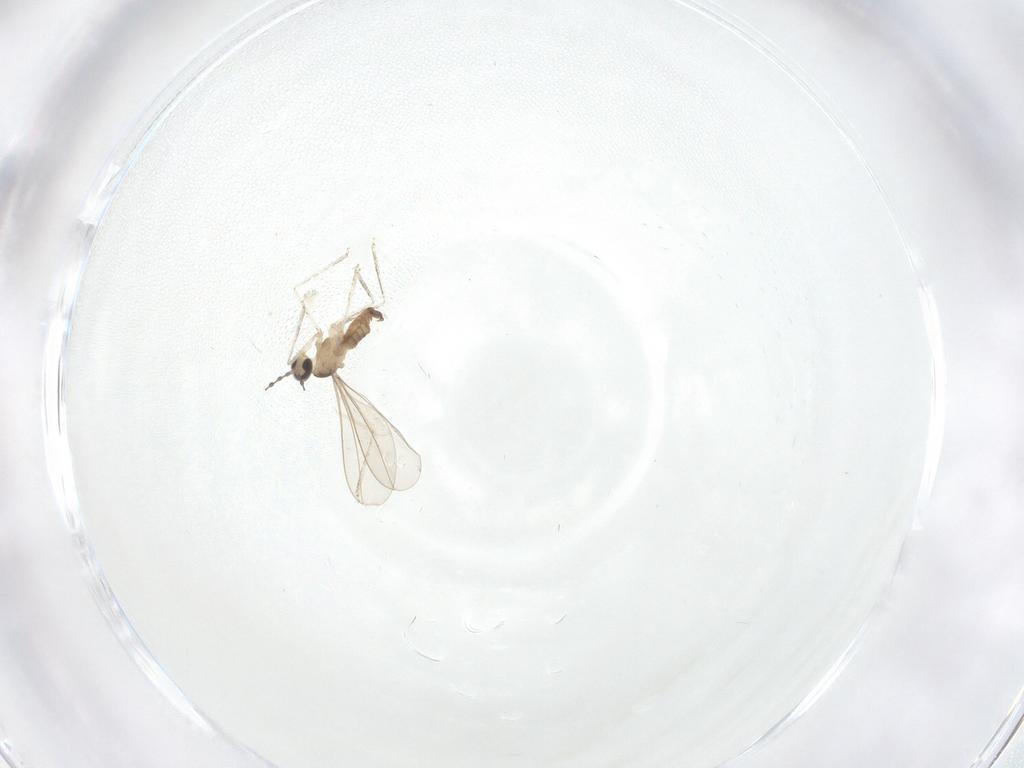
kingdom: Animalia
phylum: Arthropoda
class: Insecta
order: Diptera
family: Cecidomyiidae
